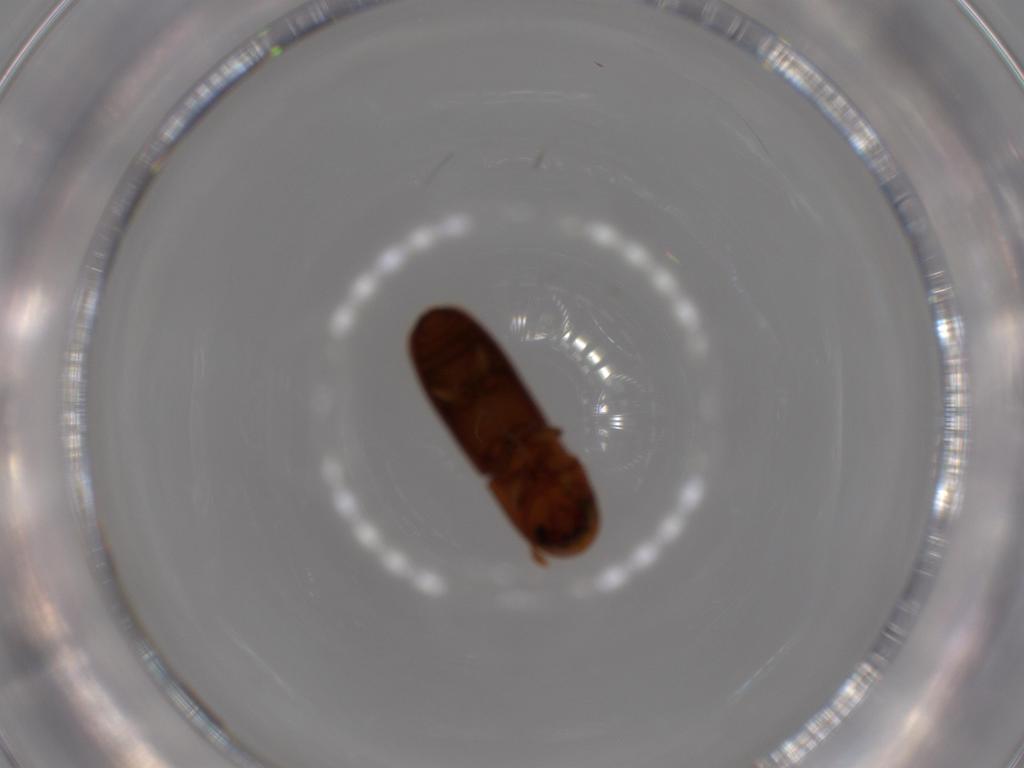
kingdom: Animalia
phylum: Arthropoda
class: Insecta
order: Coleoptera
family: Curculionidae
